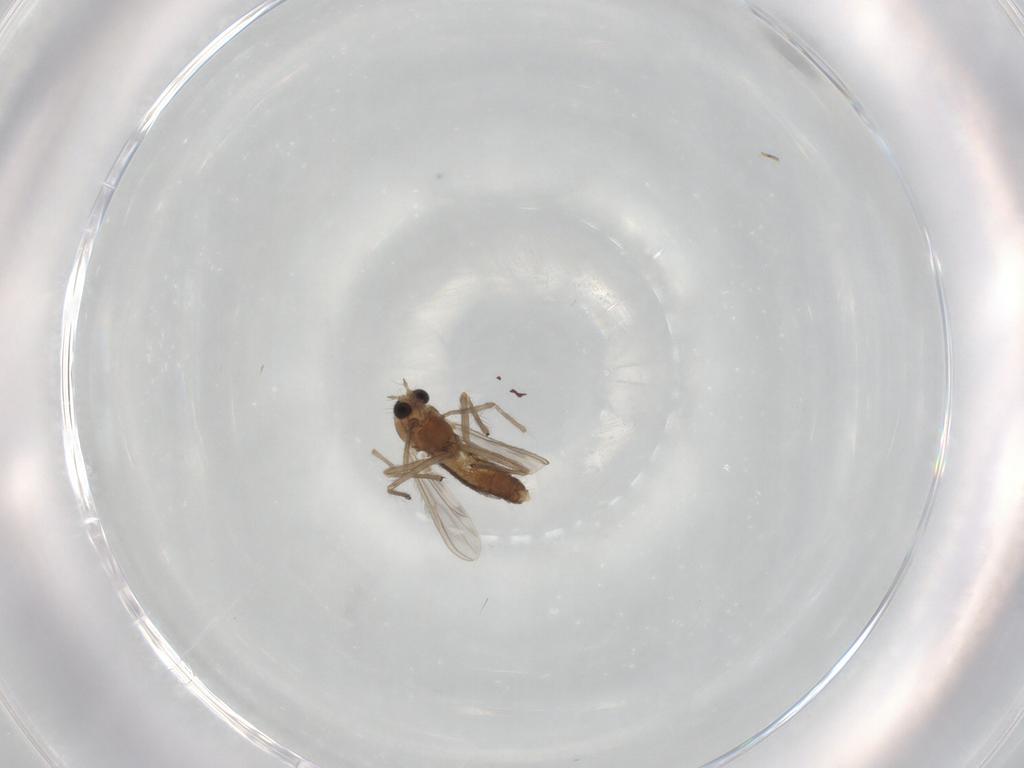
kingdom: Animalia
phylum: Arthropoda
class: Insecta
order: Diptera
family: Chironomidae
